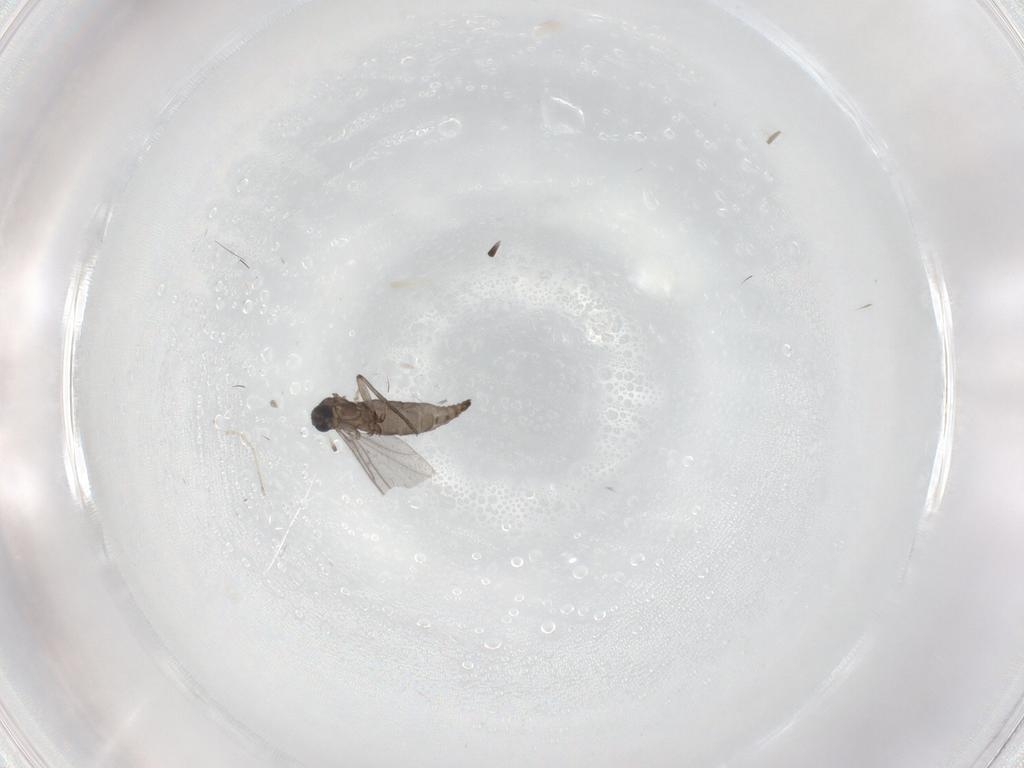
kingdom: Animalia
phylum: Arthropoda
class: Insecta
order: Diptera
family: Sciaridae
